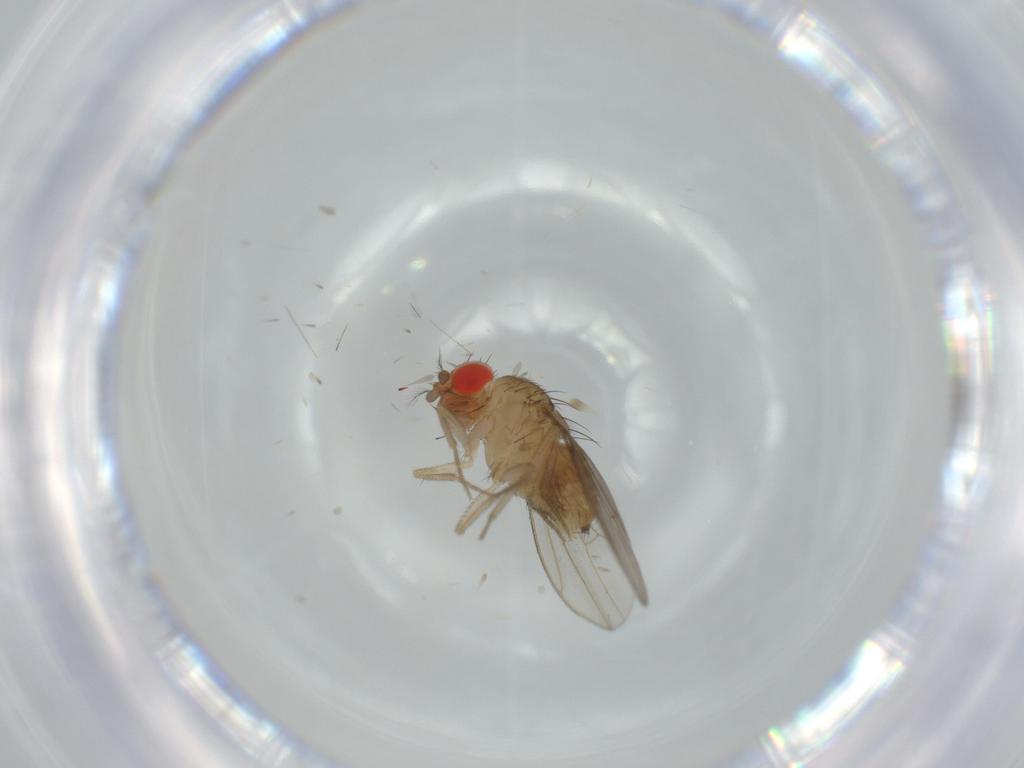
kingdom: Animalia
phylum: Arthropoda
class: Insecta
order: Diptera
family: Drosophilidae
